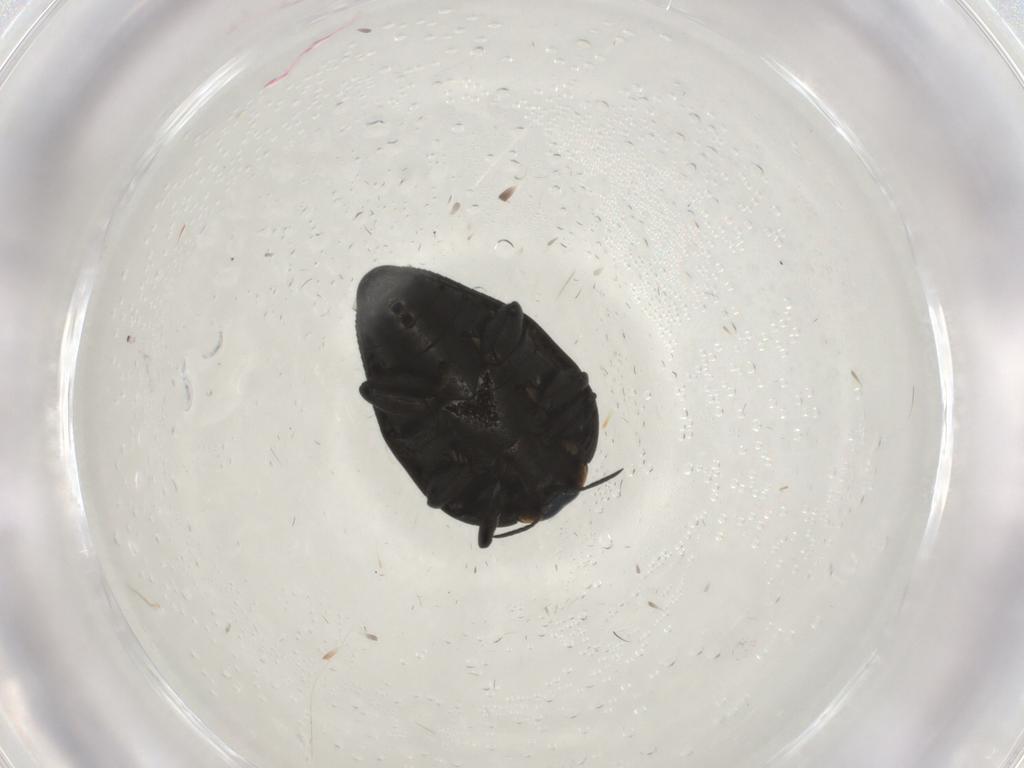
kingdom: Animalia
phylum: Arthropoda
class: Insecta
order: Coleoptera
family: Buprestidae
